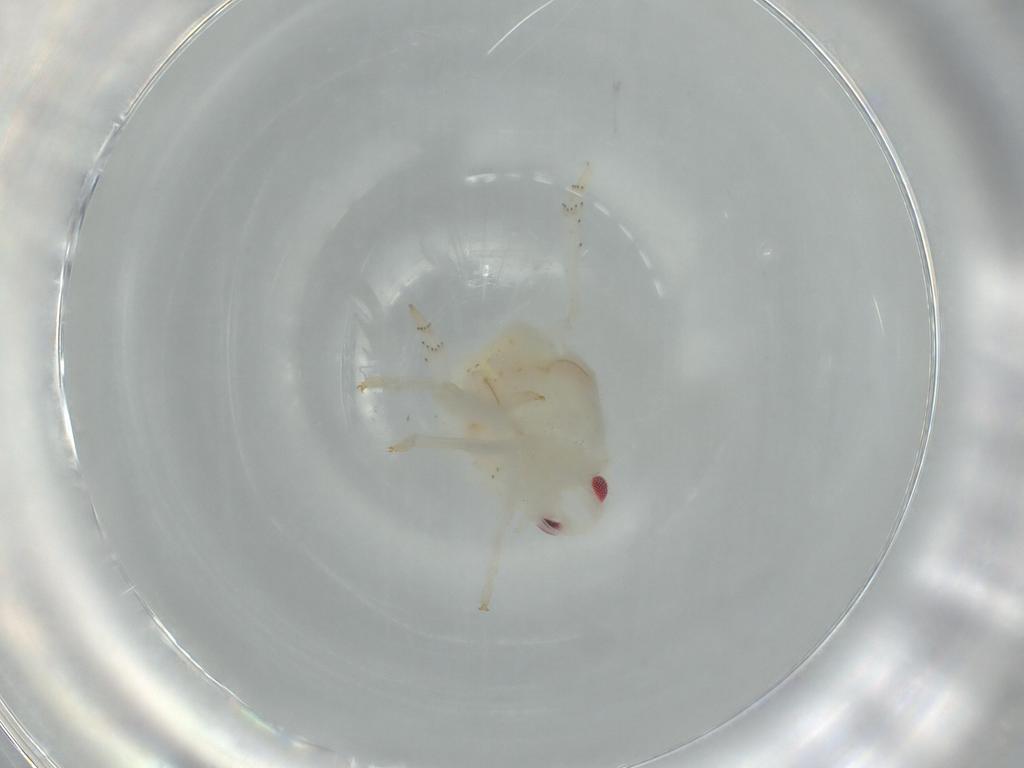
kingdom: Animalia
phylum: Arthropoda
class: Insecta
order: Hemiptera
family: Flatidae
